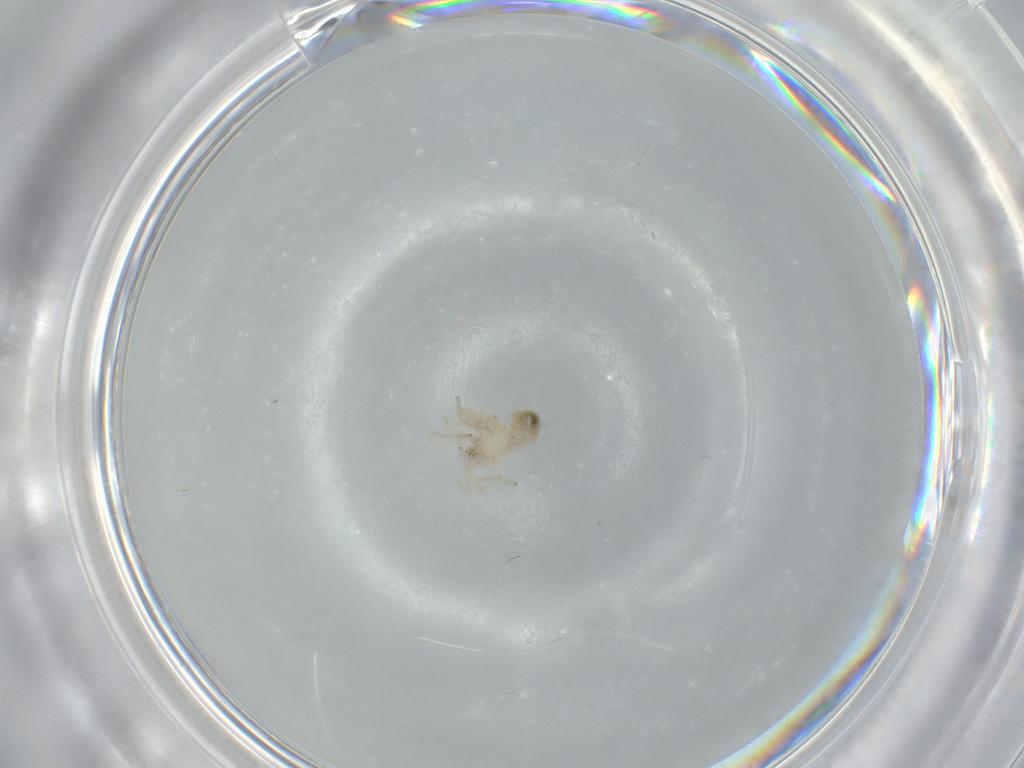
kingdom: Animalia
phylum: Arthropoda
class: Arachnida
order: Araneae
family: Oonopidae
